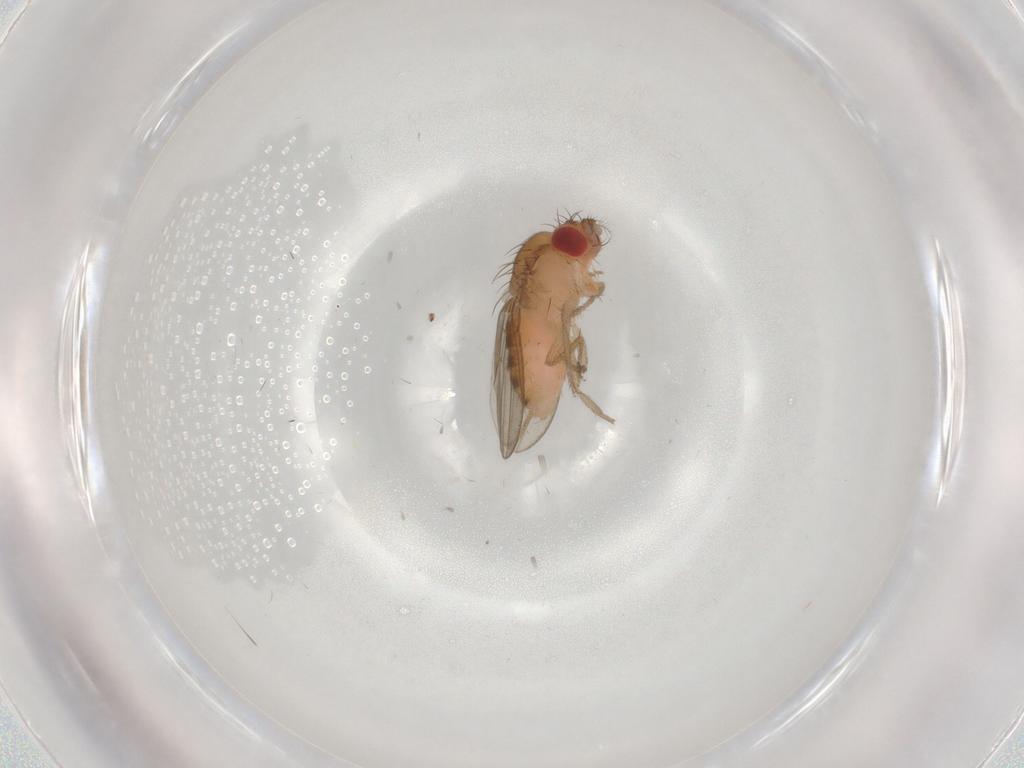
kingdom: Animalia
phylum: Arthropoda
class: Insecta
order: Diptera
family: Drosophilidae
